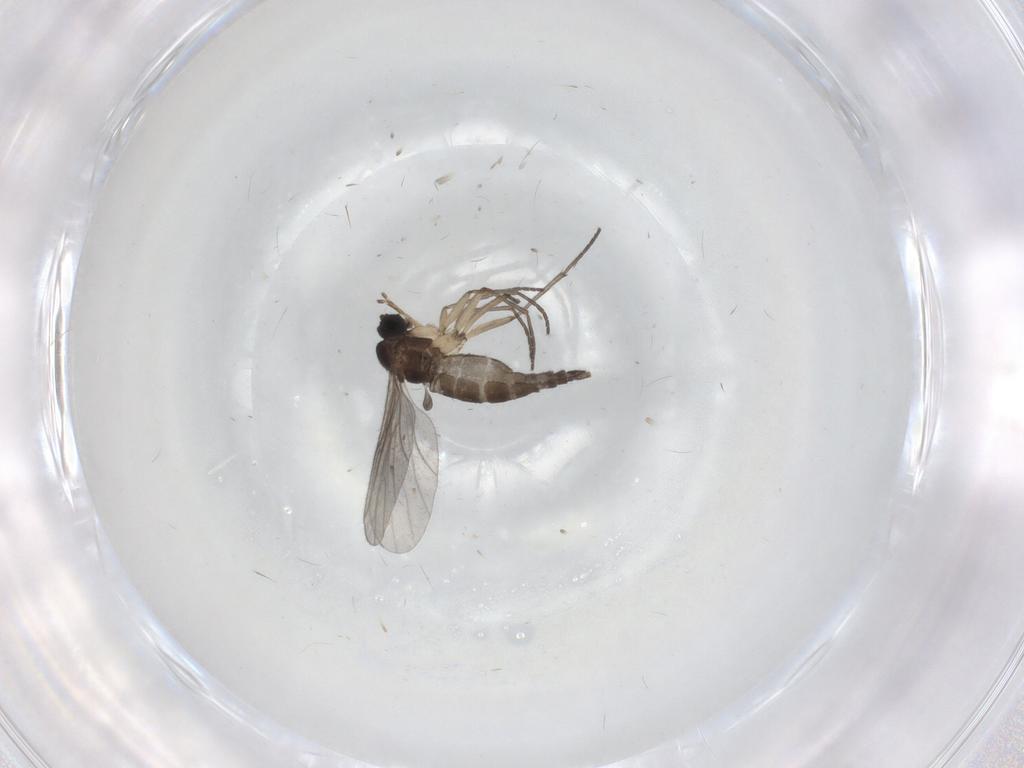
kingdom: Animalia
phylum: Arthropoda
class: Insecta
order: Diptera
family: Sciaridae
